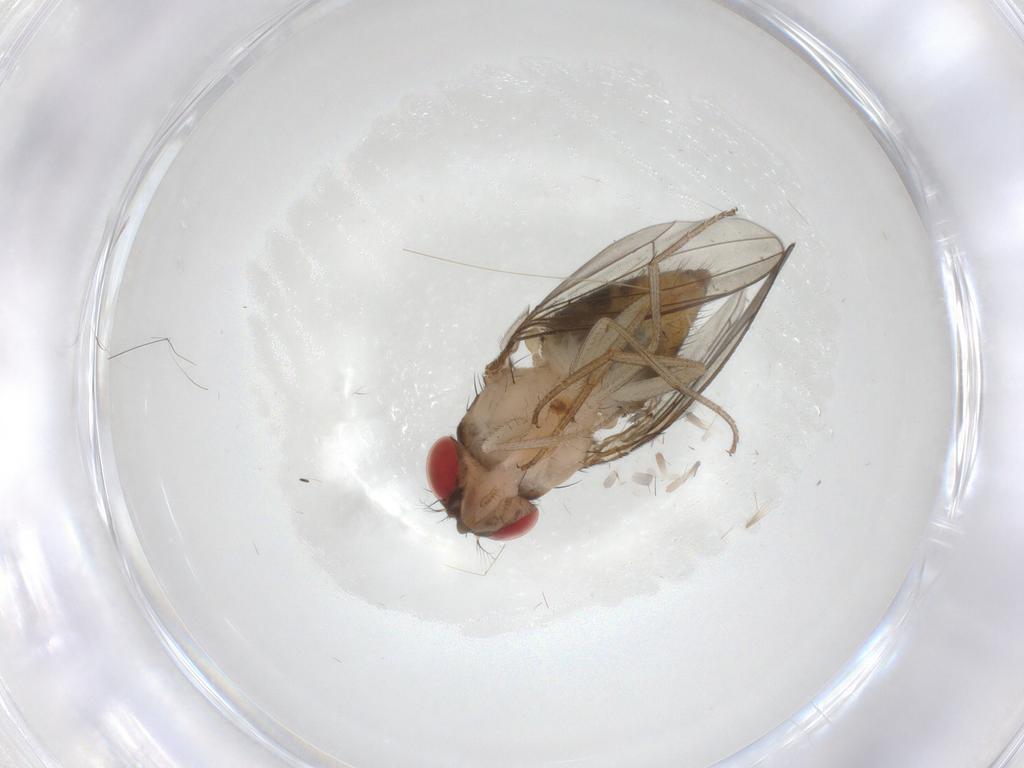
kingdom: Animalia
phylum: Arthropoda
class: Insecta
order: Diptera
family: Drosophilidae
